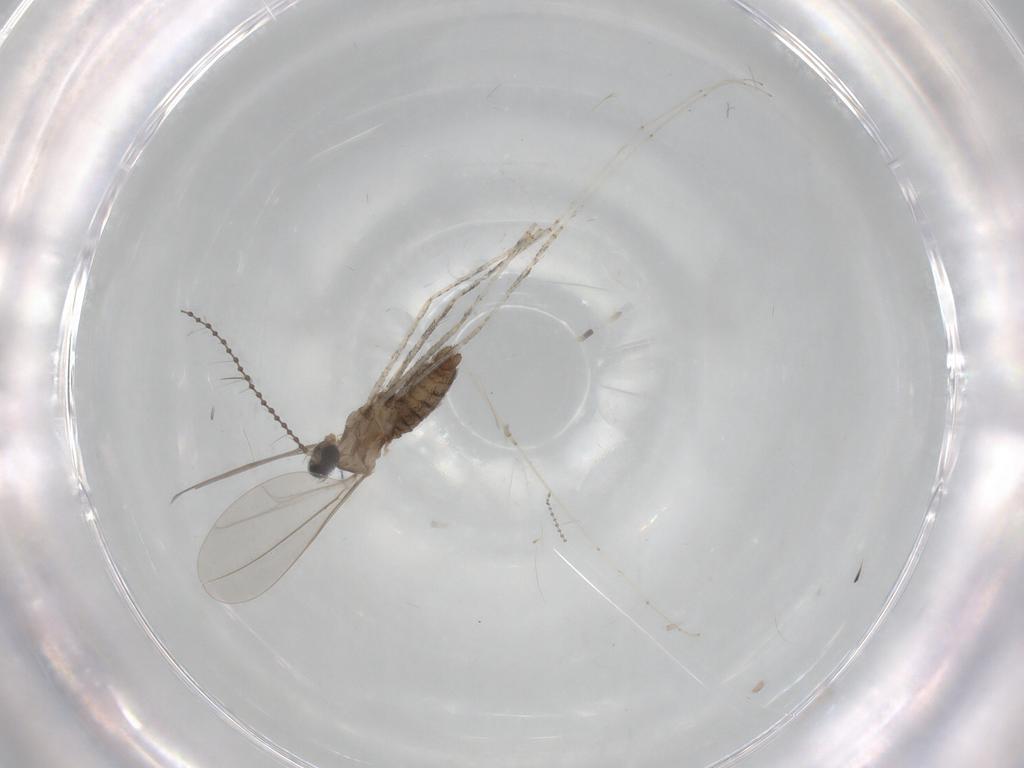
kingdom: Animalia
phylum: Arthropoda
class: Insecta
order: Diptera
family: Cecidomyiidae
